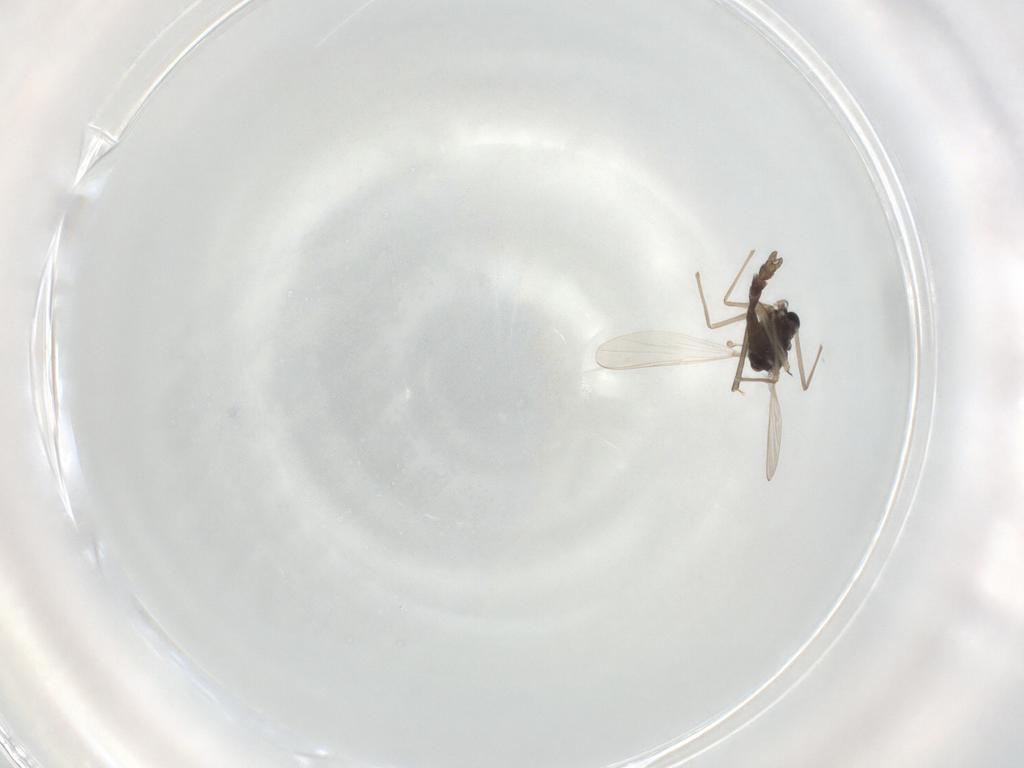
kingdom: Animalia
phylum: Arthropoda
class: Insecta
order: Diptera
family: Chironomidae
